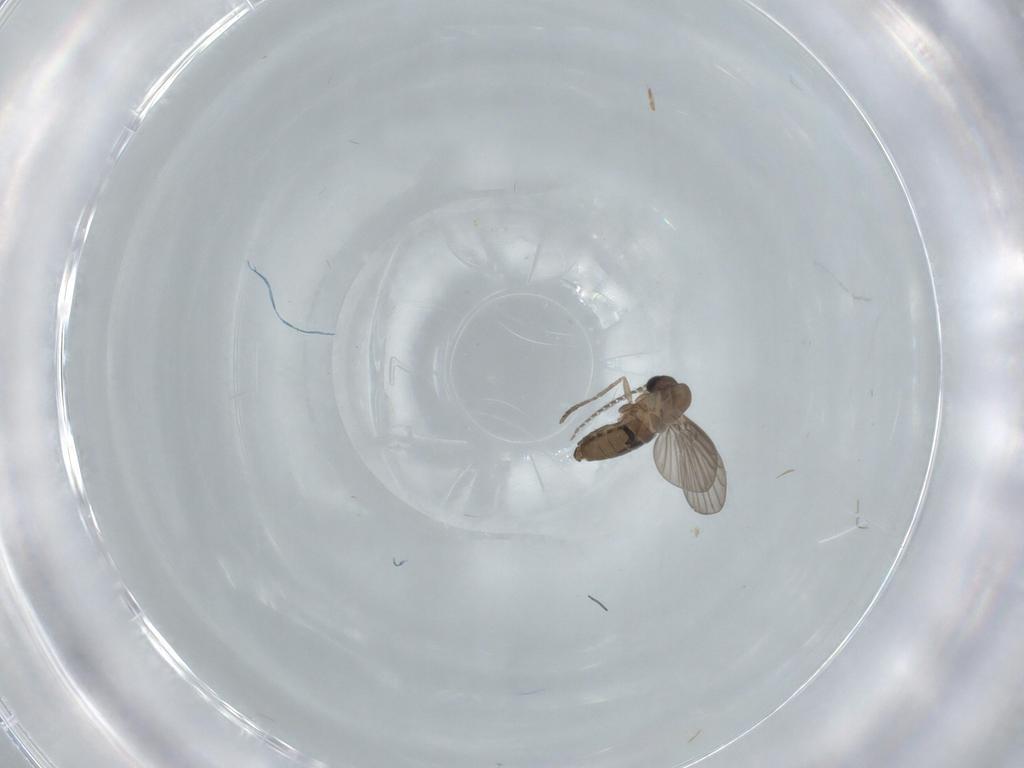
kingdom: Animalia
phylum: Arthropoda
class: Insecta
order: Diptera
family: Psychodidae
